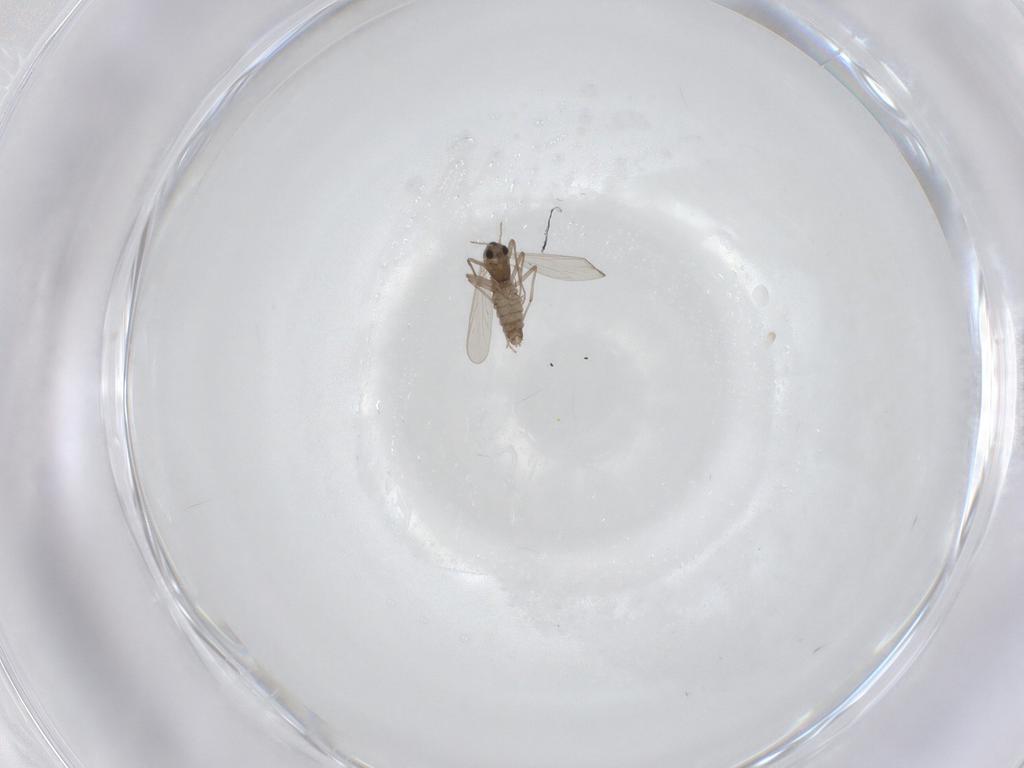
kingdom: Animalia
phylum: Arthropoda
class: Insecta
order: Diptera
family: Chironomidae
